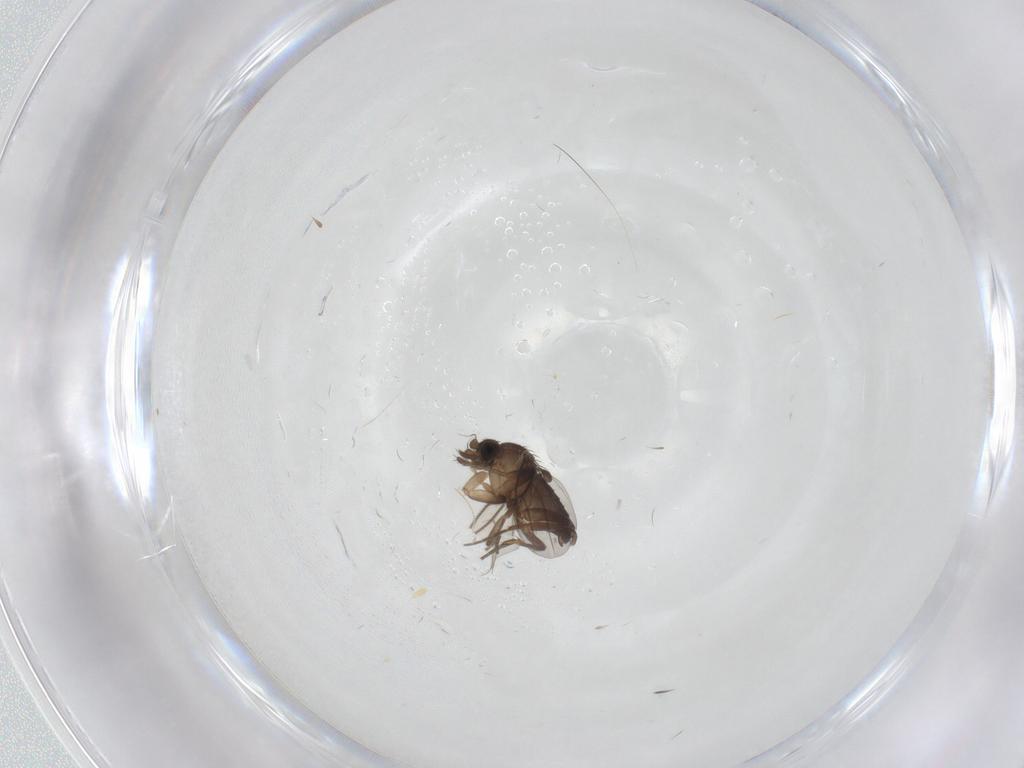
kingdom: Animalia
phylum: Arthropoda
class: Insecta
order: Diptera
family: Phoridae
